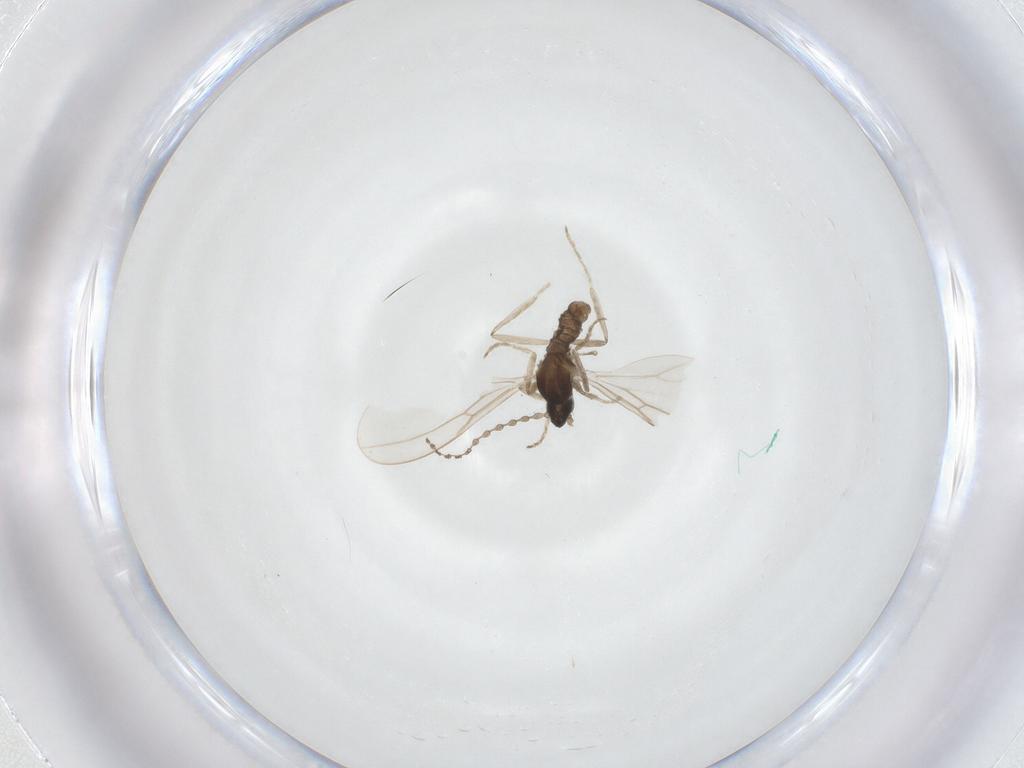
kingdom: Animalia
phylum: Arthropoda
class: Insecta
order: Diptera
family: Cecidomyiidae
